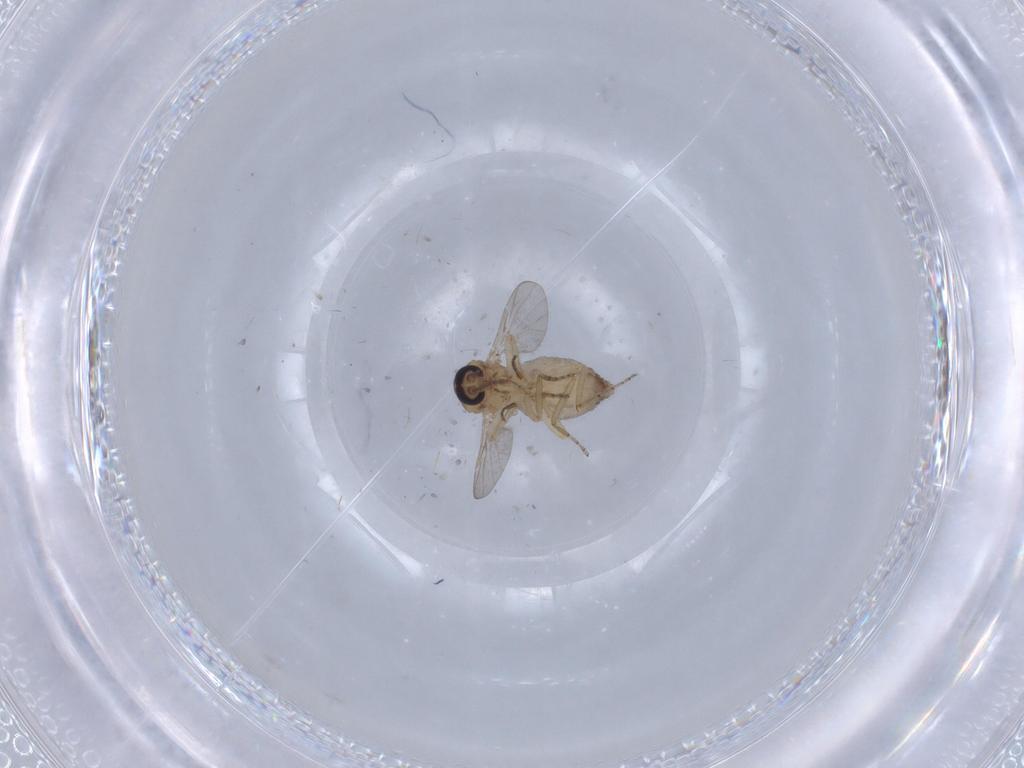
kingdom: Animalia
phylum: Arthropoda
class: Insecta
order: Diptera
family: Ceratopogonidae
